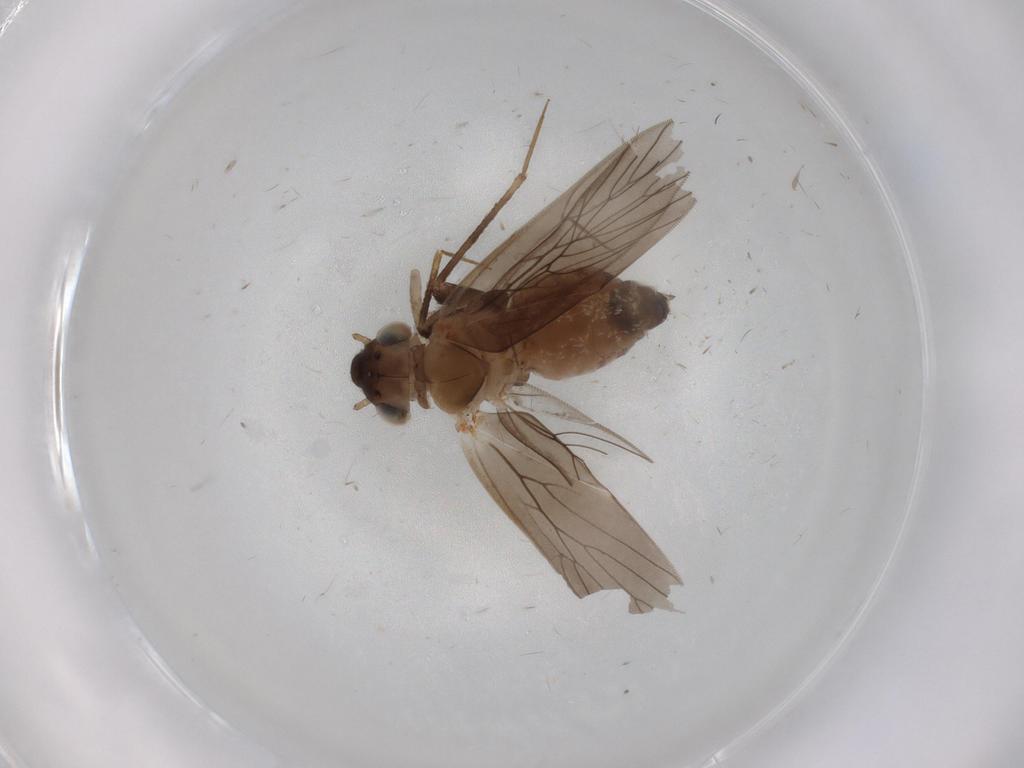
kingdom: Animalia
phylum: Arthropoda
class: Insecta
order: Psocodea
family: Lepidopsocidae
